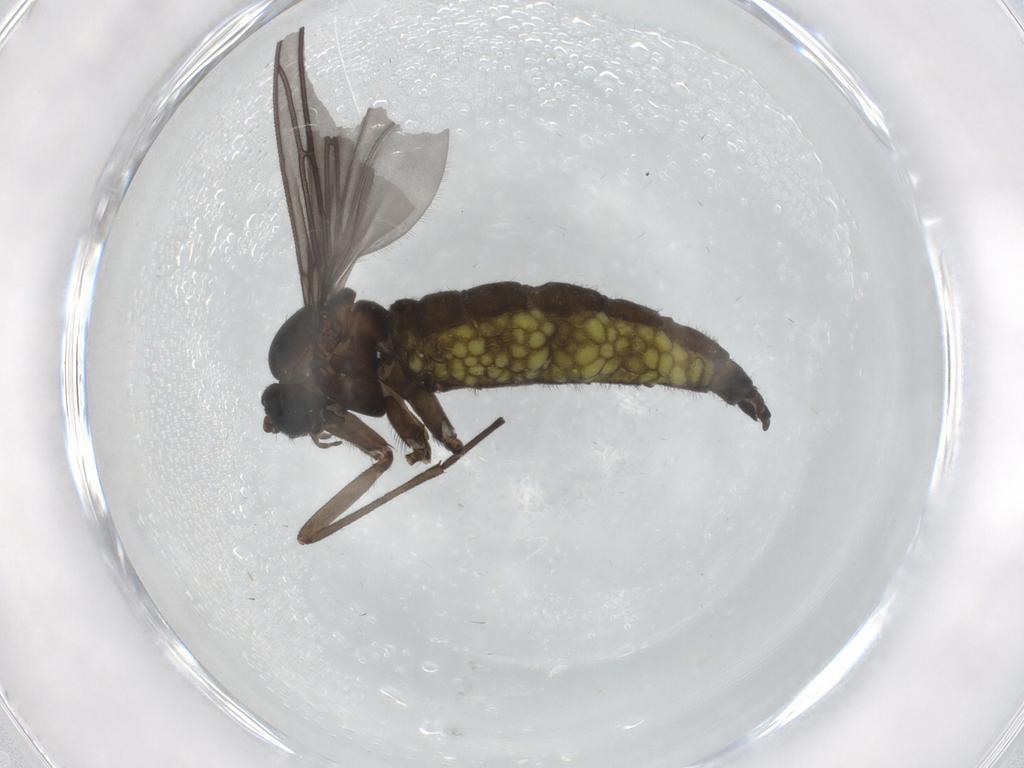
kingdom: Animalia
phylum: Arthropoda
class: Insecta
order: Diptera
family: Sciaridae
